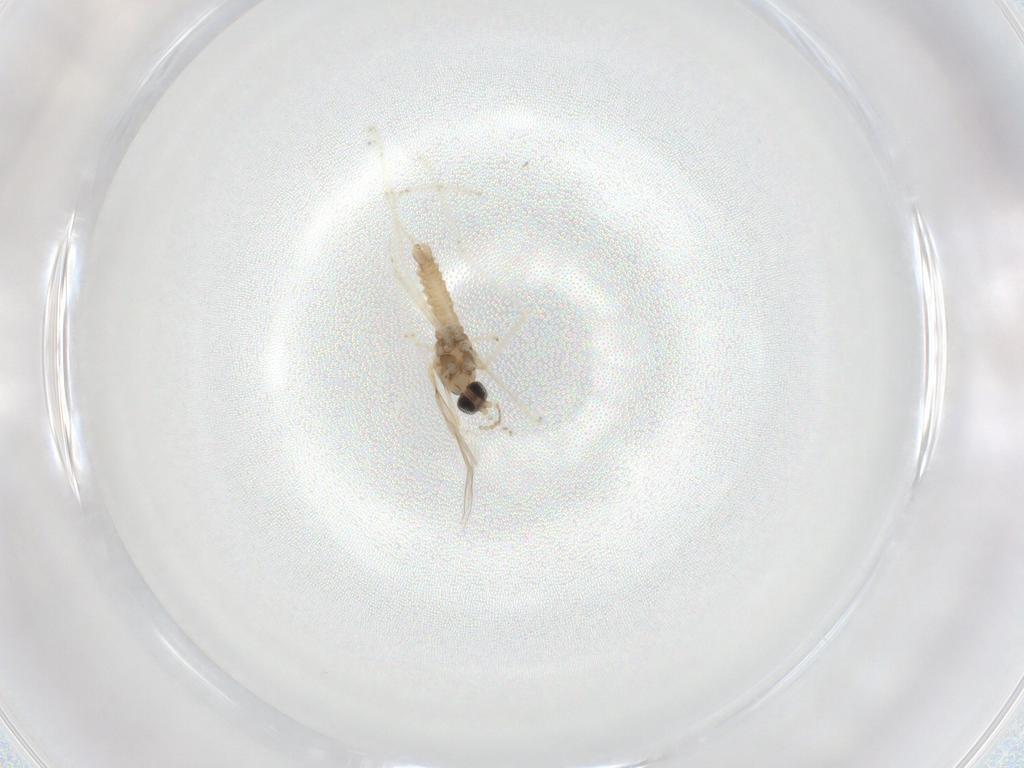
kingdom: Animalia
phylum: Arthropoda
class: Insecta
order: Diptera
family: Cecidomyiidae
